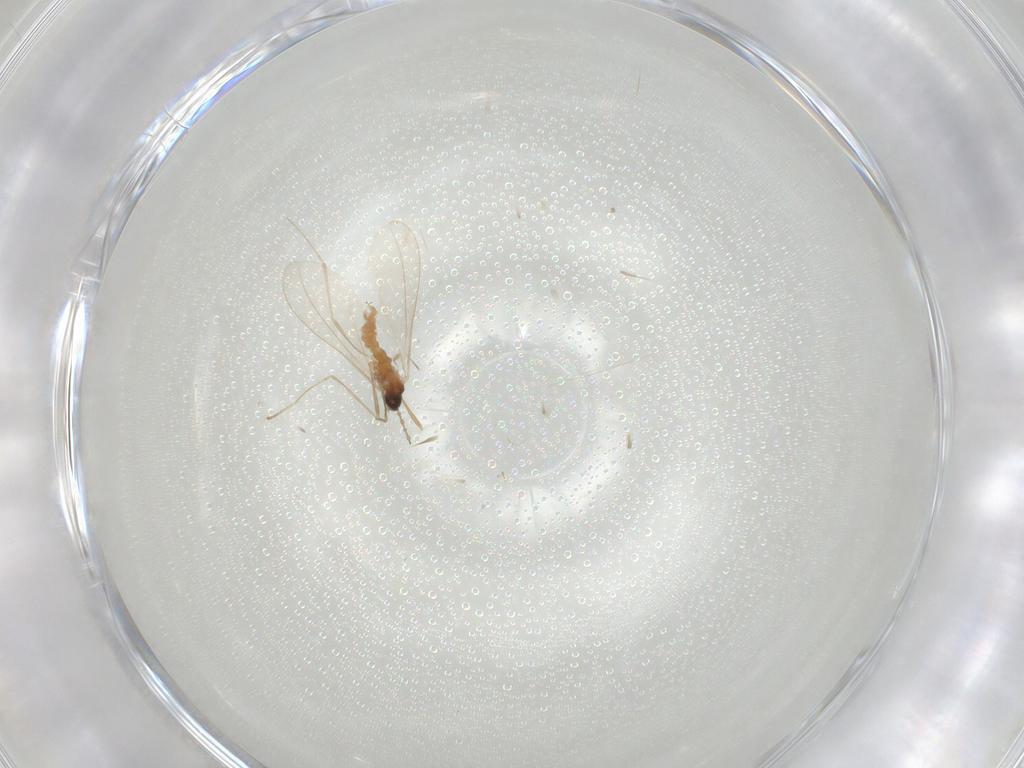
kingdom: Animalia
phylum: Arthropoda
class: Insecta
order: Diptera
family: Cecidomyiidae
